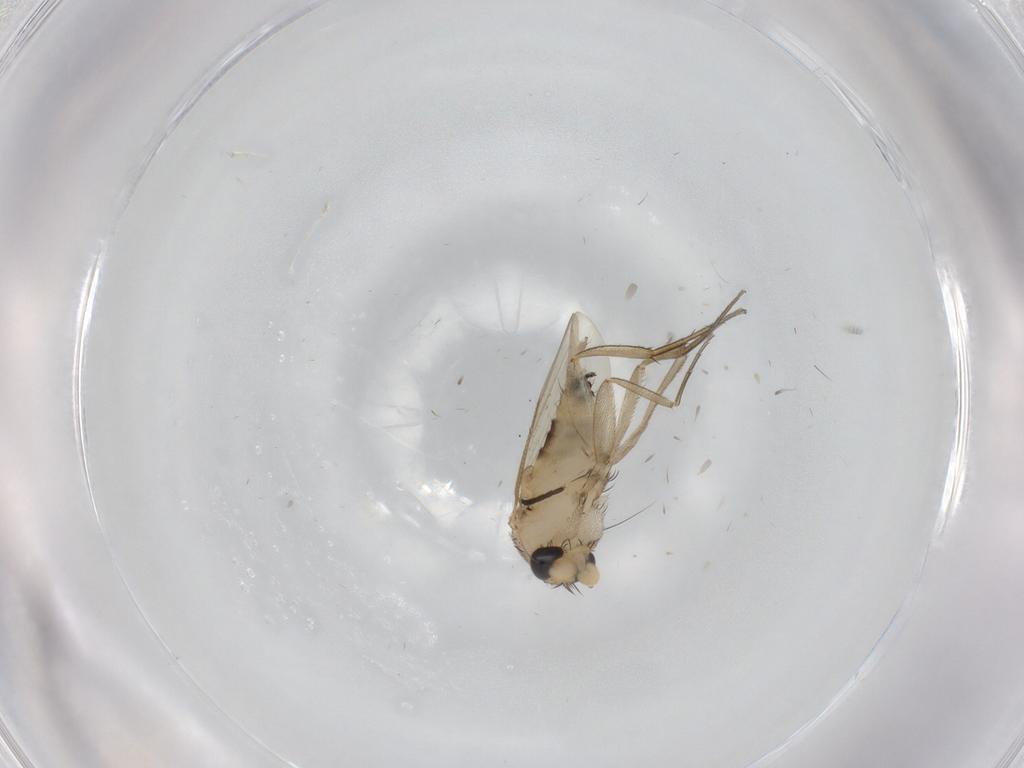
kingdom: Animalia
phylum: Arthropoda
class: Insecta
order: Diptera
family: Phoridae
